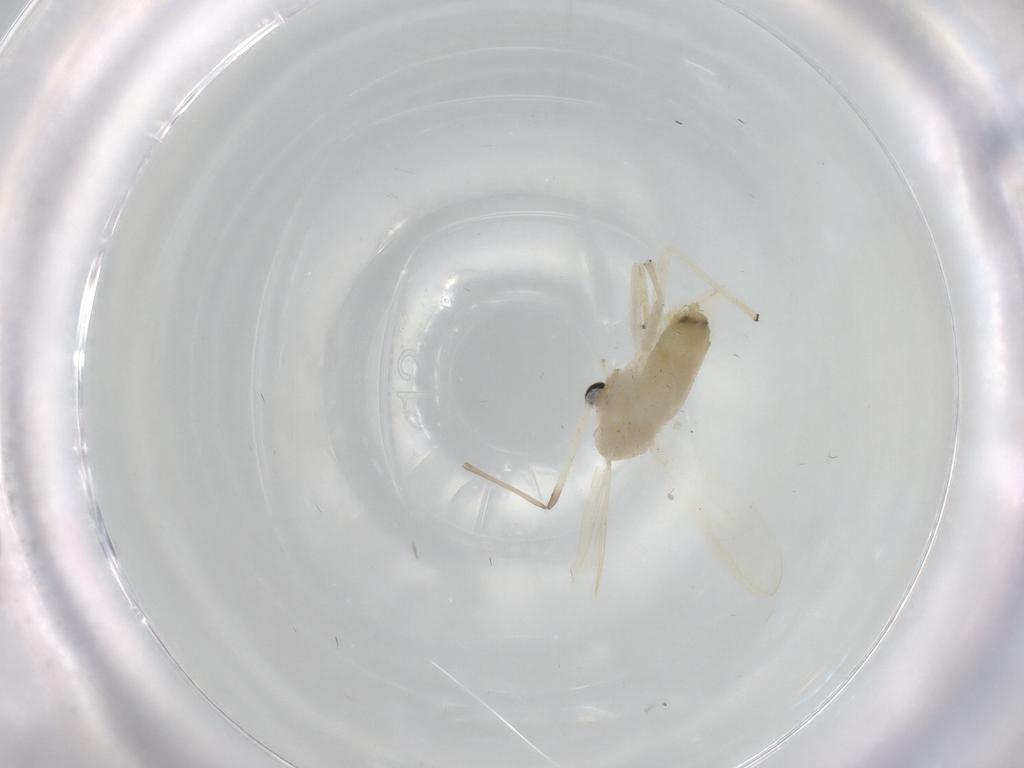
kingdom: Animalia
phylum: Arthropoda
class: Insecta
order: Diptera
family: Chironomidae
